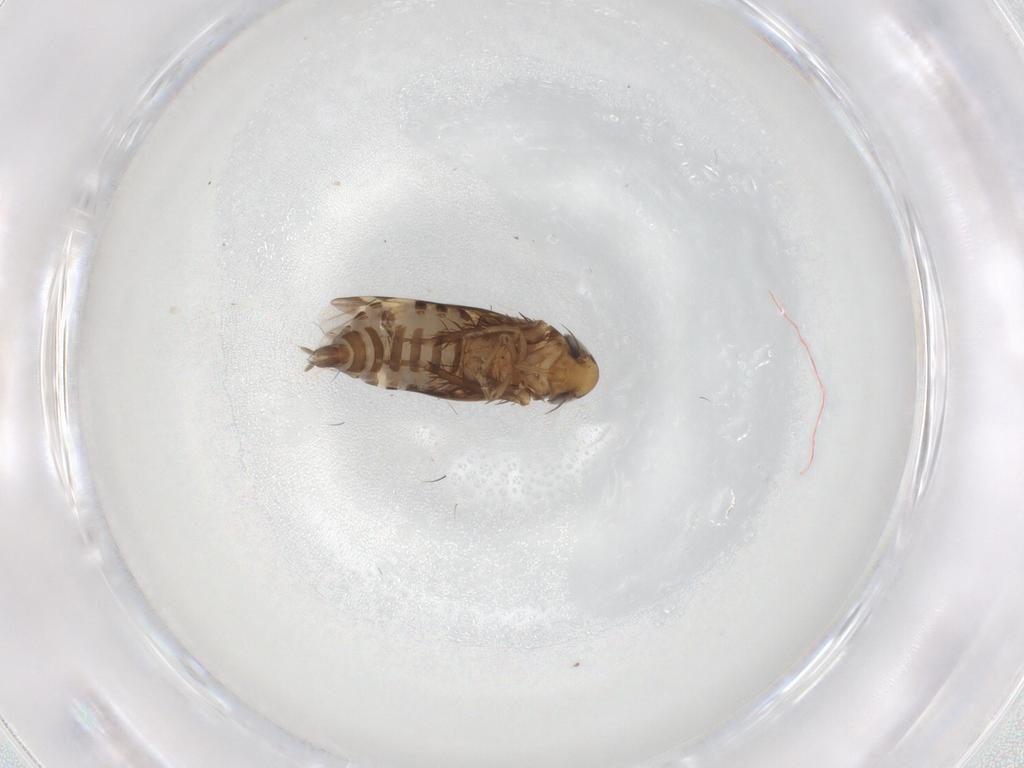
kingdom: Animalia
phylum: Arthropoda
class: Insecta
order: Hemiptera
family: Cicadellidae
